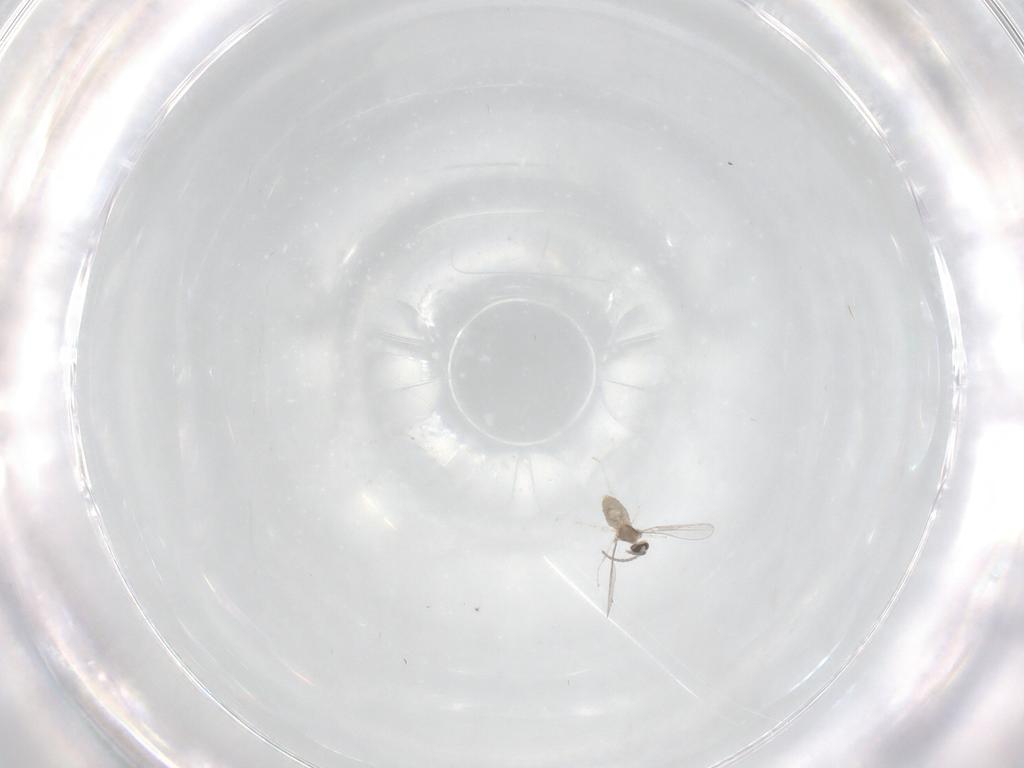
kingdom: Animalia
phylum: Arthropoda
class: Insecta
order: Diptera
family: Cecidomyiidae
